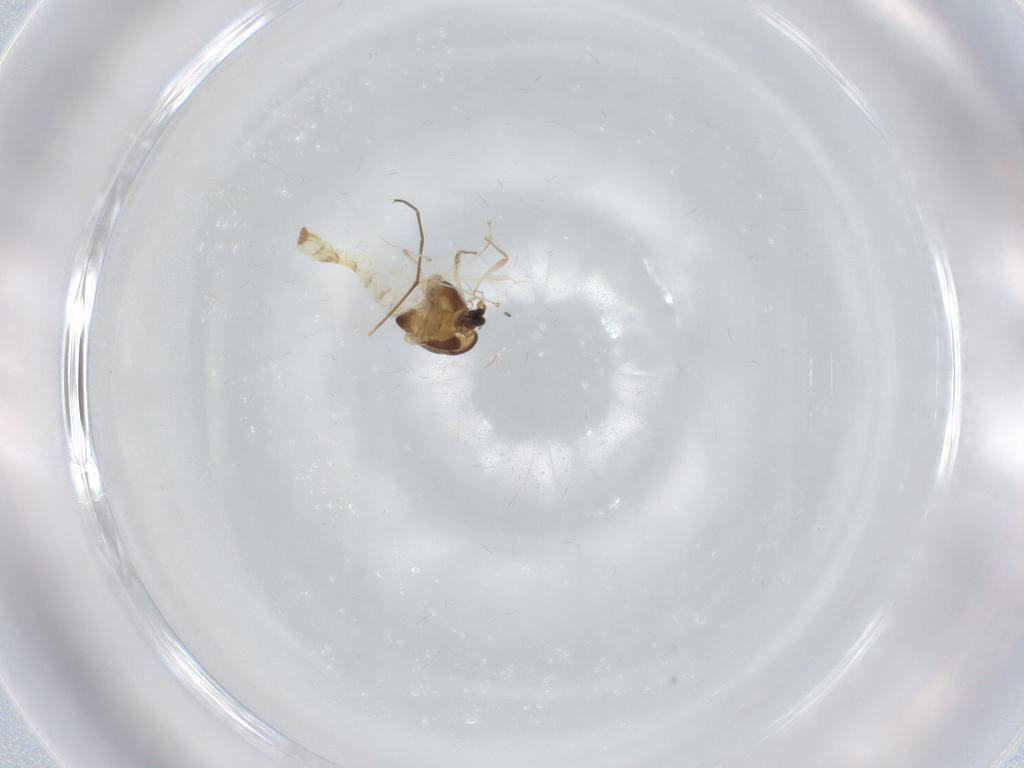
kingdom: Animalia
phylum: Arthropoda
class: Insecta
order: Diptera
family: Chironomidae
